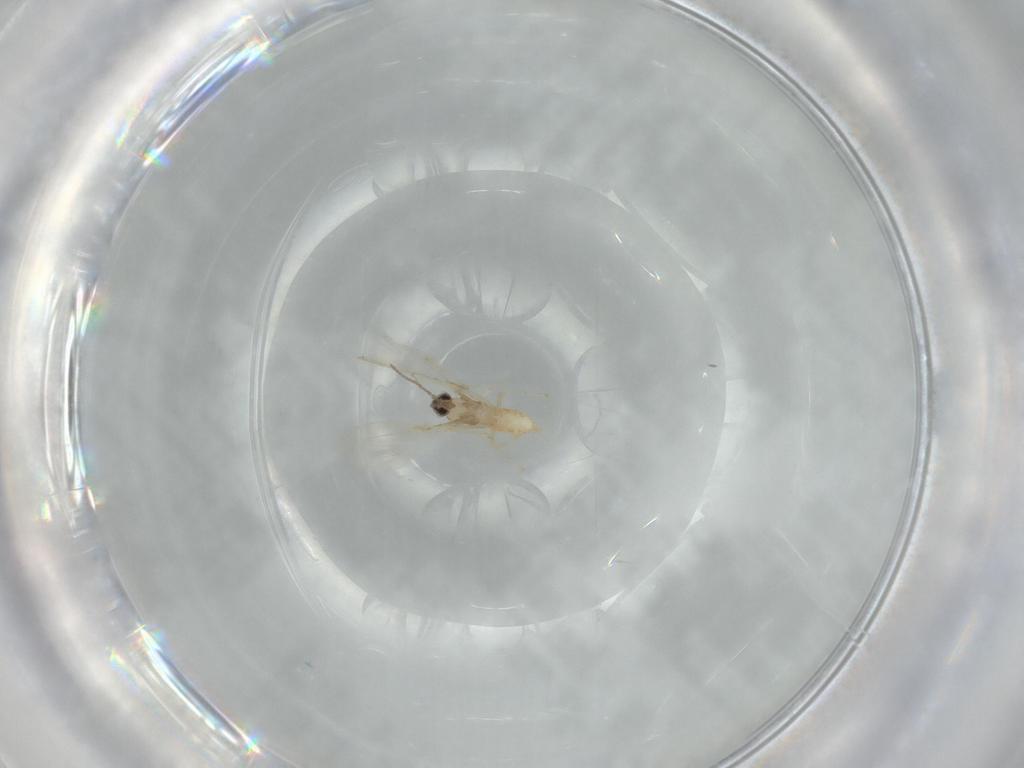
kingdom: Animalia
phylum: Arthropoda
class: Insecta
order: Diptera
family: Cecidomyiidae
